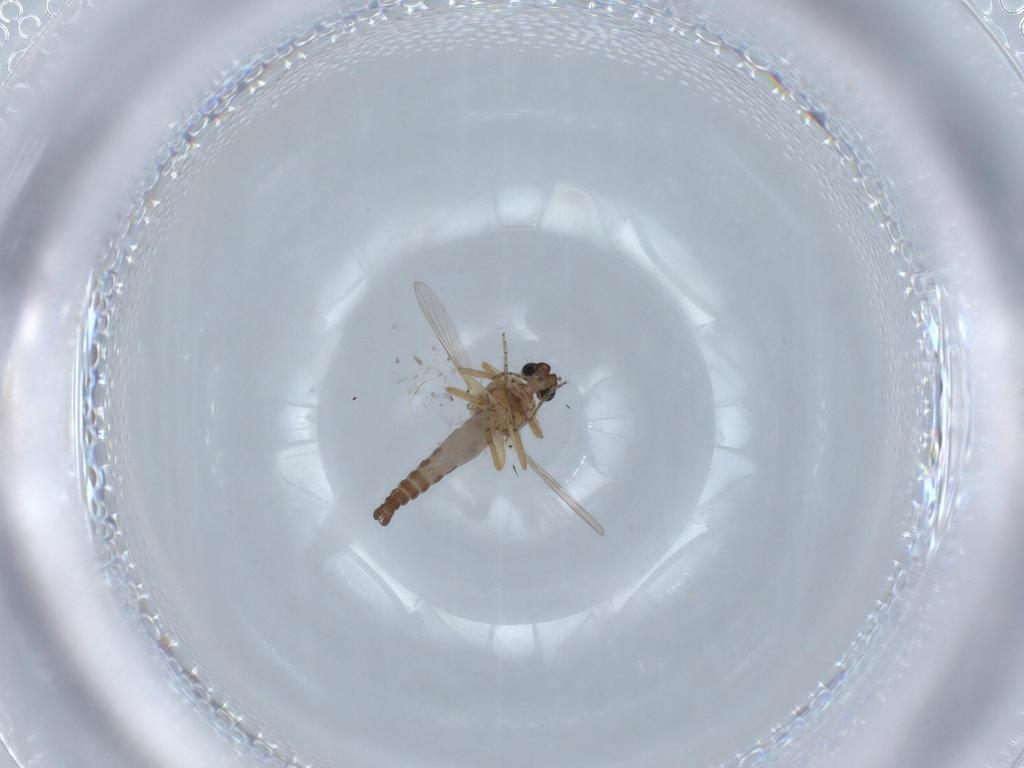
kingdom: Animalia
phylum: Arthropoda
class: Insecta
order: Diptera
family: Ceratopogonidae
